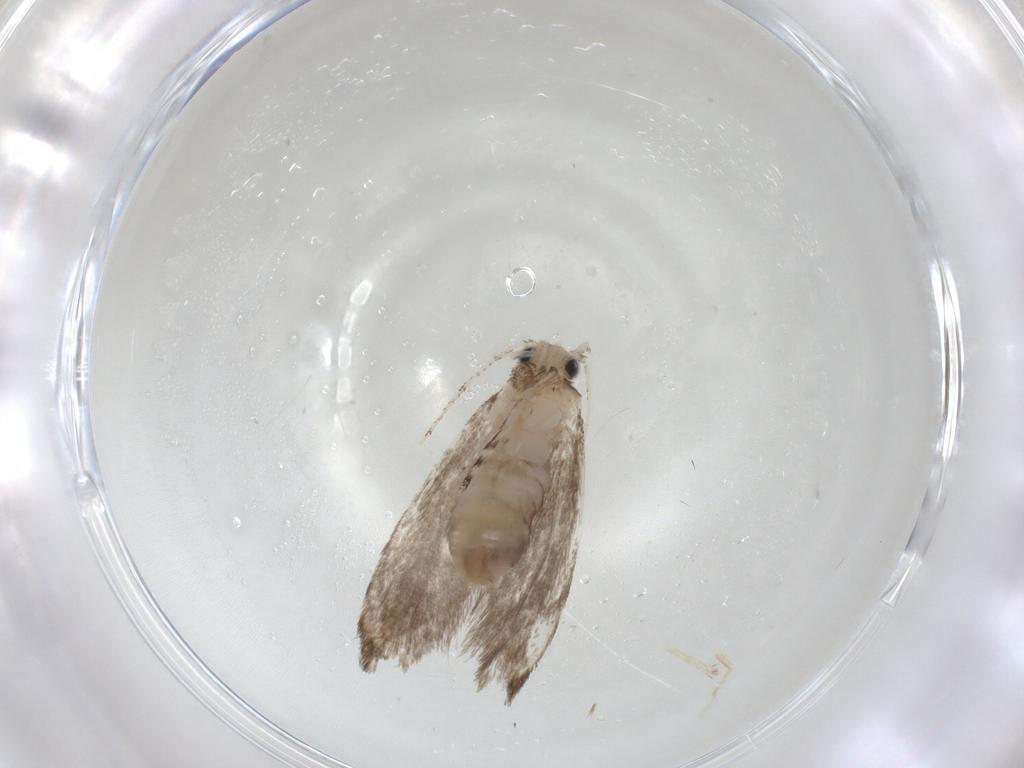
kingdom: Animalia
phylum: Arthropoda
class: Insecta
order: Lepidoptera
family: Tineidae
